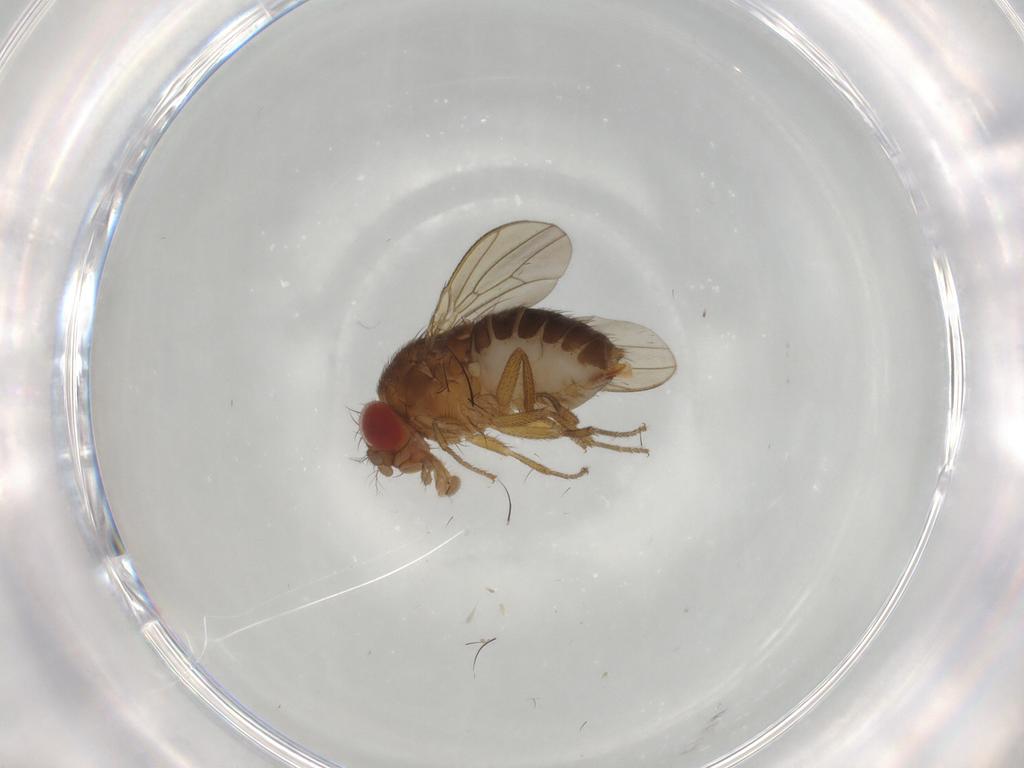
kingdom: Animalia
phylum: Arthropoda
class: Insecta
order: Diptera
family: Drosophilidae
